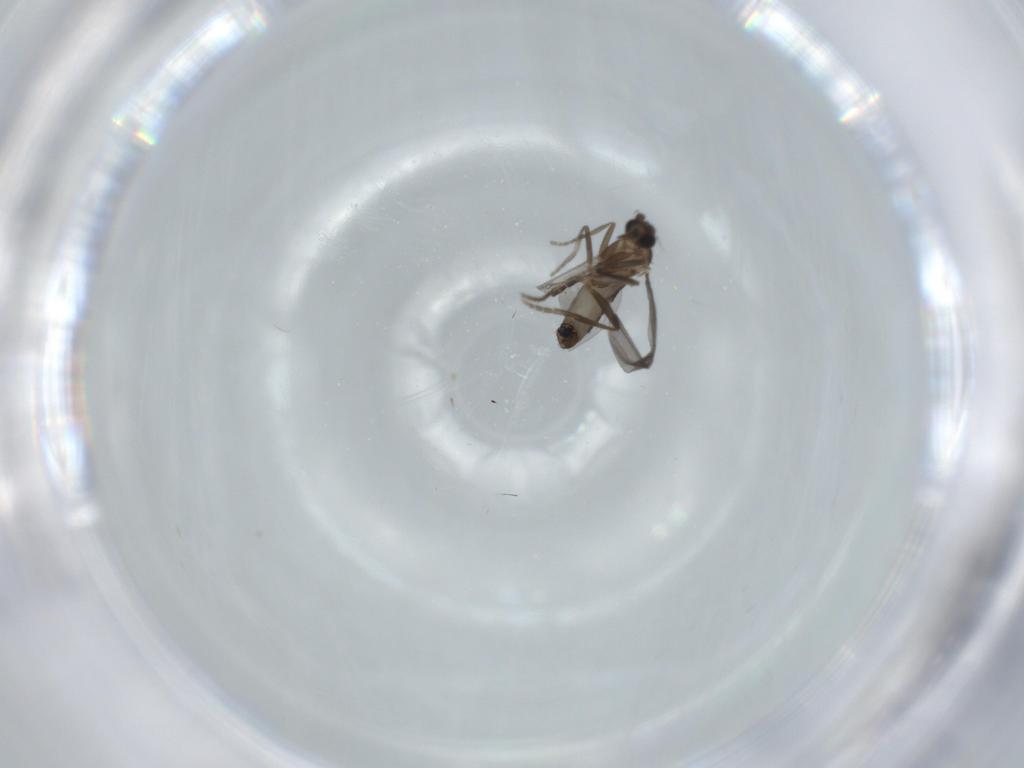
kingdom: Animalia
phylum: Arthropoda
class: Insecta
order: Diptera
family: Phoridae
